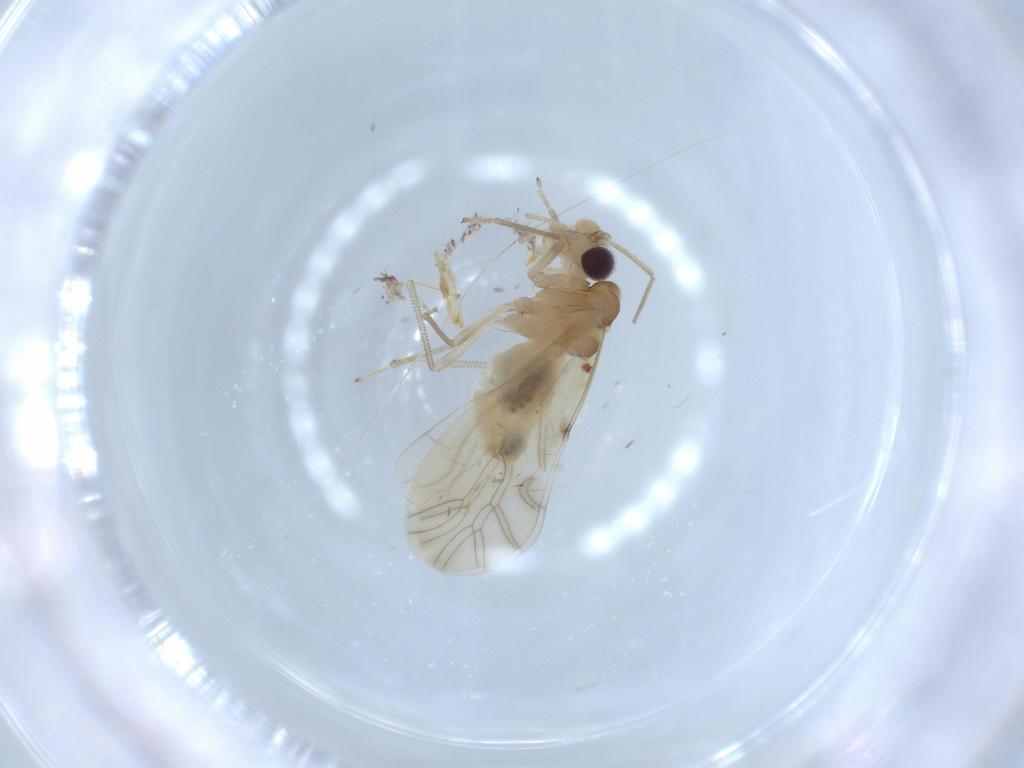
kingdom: Animalia
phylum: Arthropoda
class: Insecta
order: Psocodea
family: Caeciliusidae
